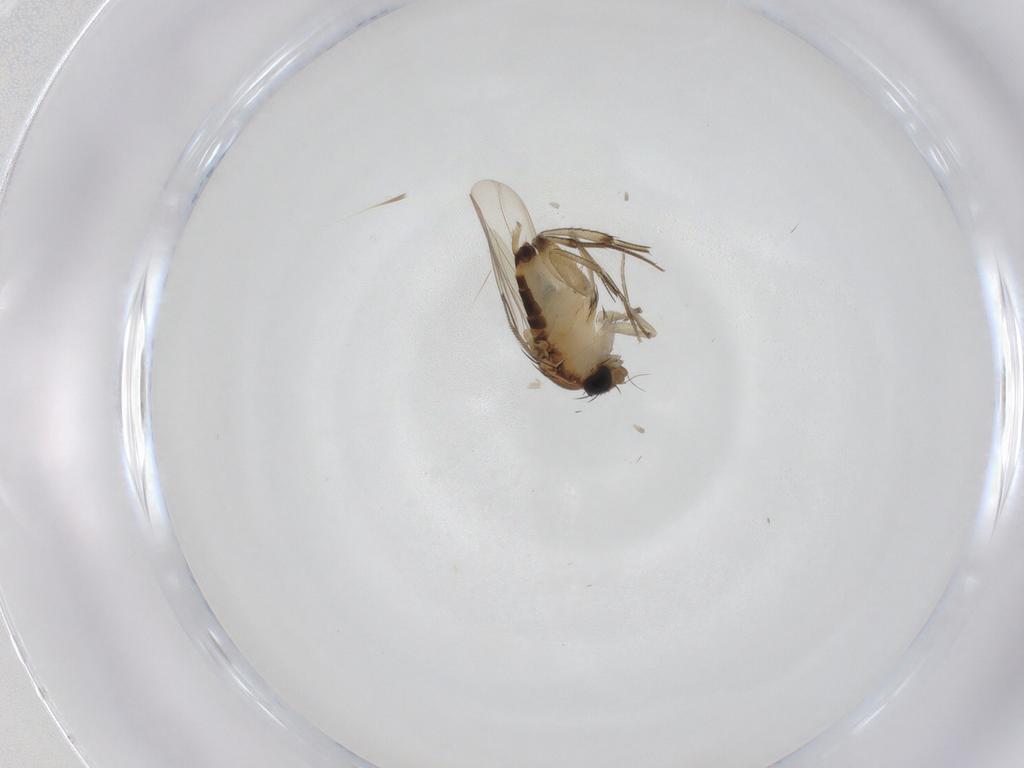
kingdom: Animalia
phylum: Arthropoda
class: Insecta
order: Diptera
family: Phoridae
